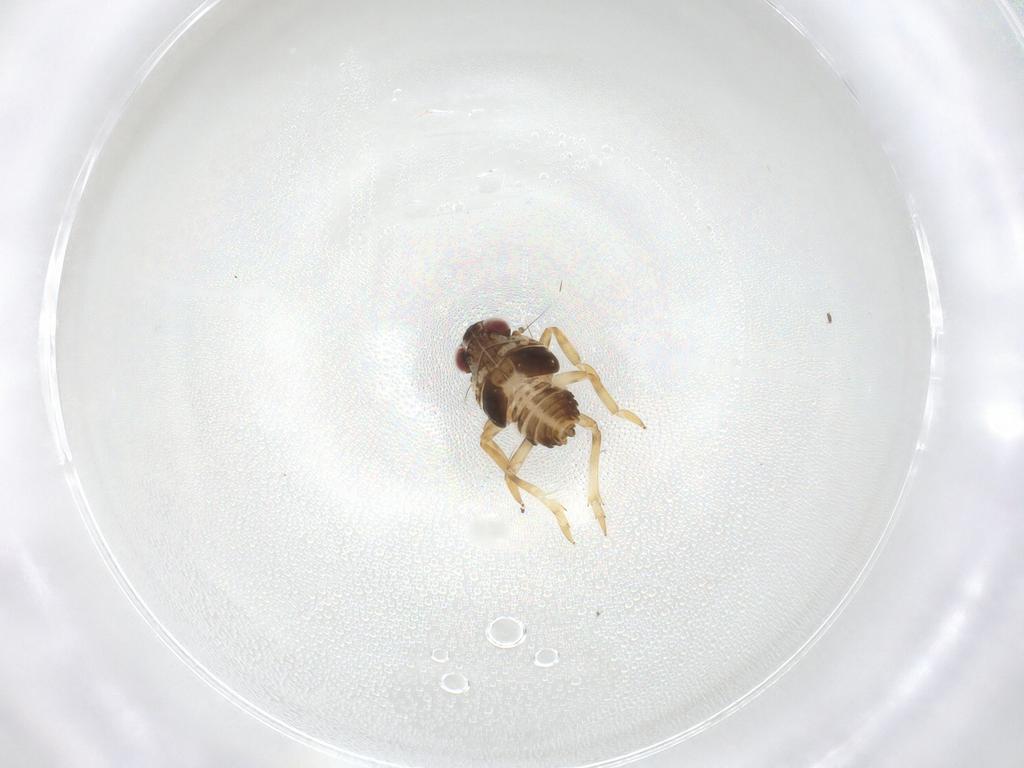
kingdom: Animalia
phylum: Arthropoda
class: Insecta
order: Hemiptera
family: Issidae
